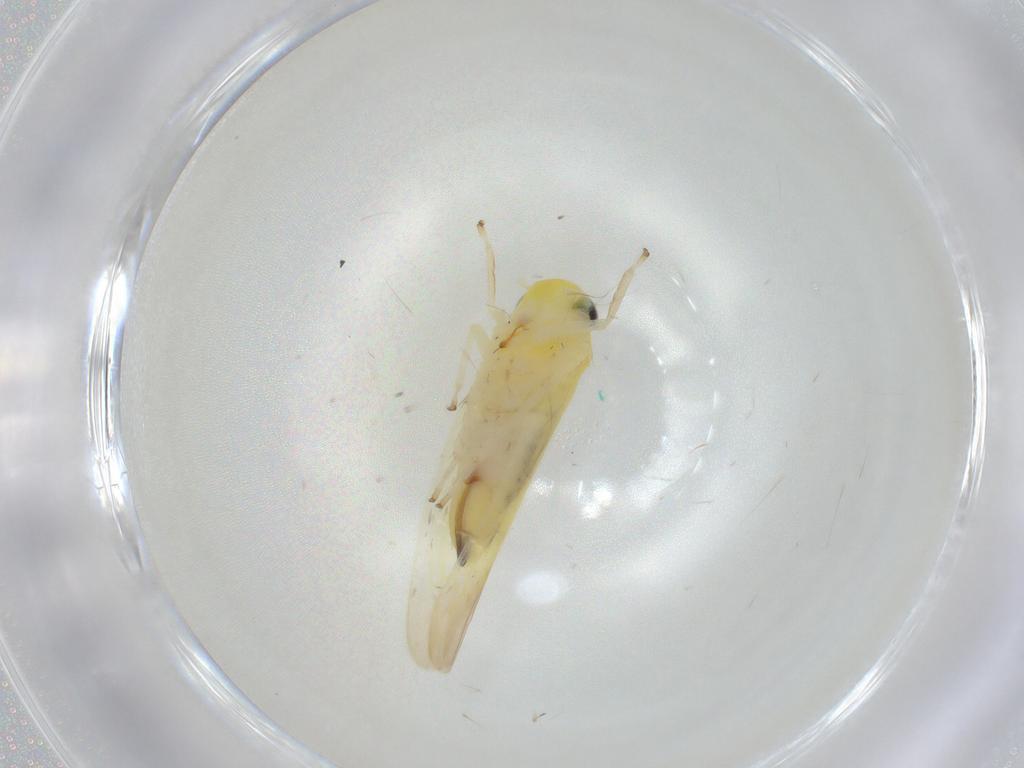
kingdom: Animalia
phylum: Arthropoda
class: Insecta
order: Hemiptera
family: Cicadellidae
